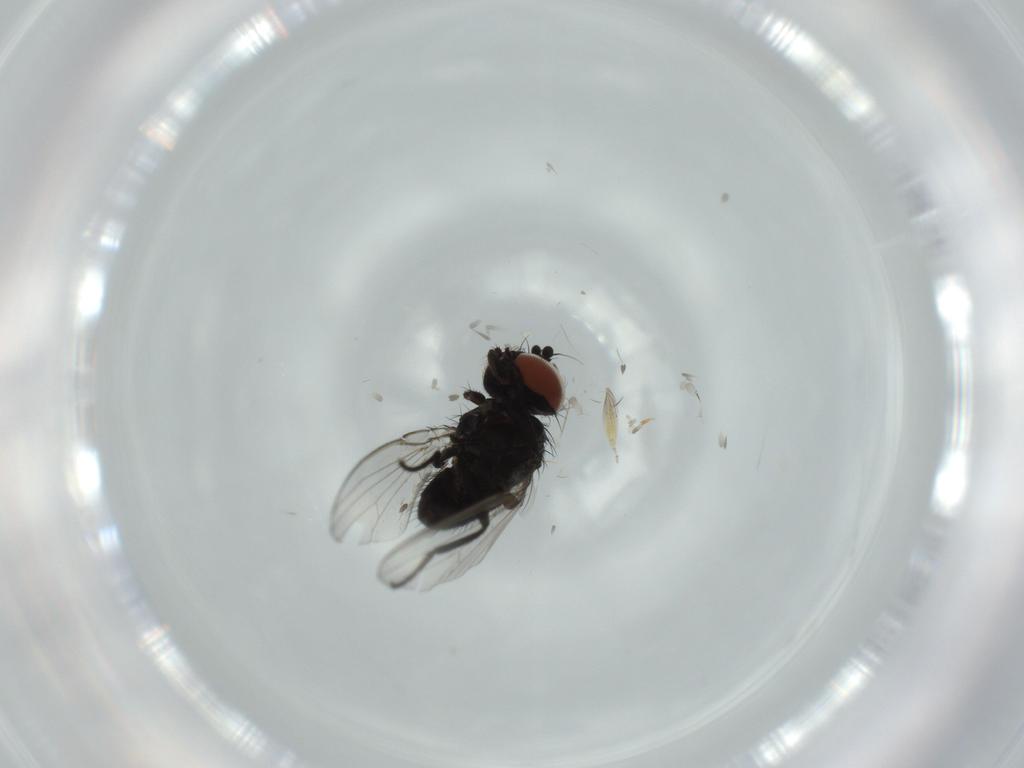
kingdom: Animalia
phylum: Arthropoda
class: Insecta
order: Diptera
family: Milichiidae
